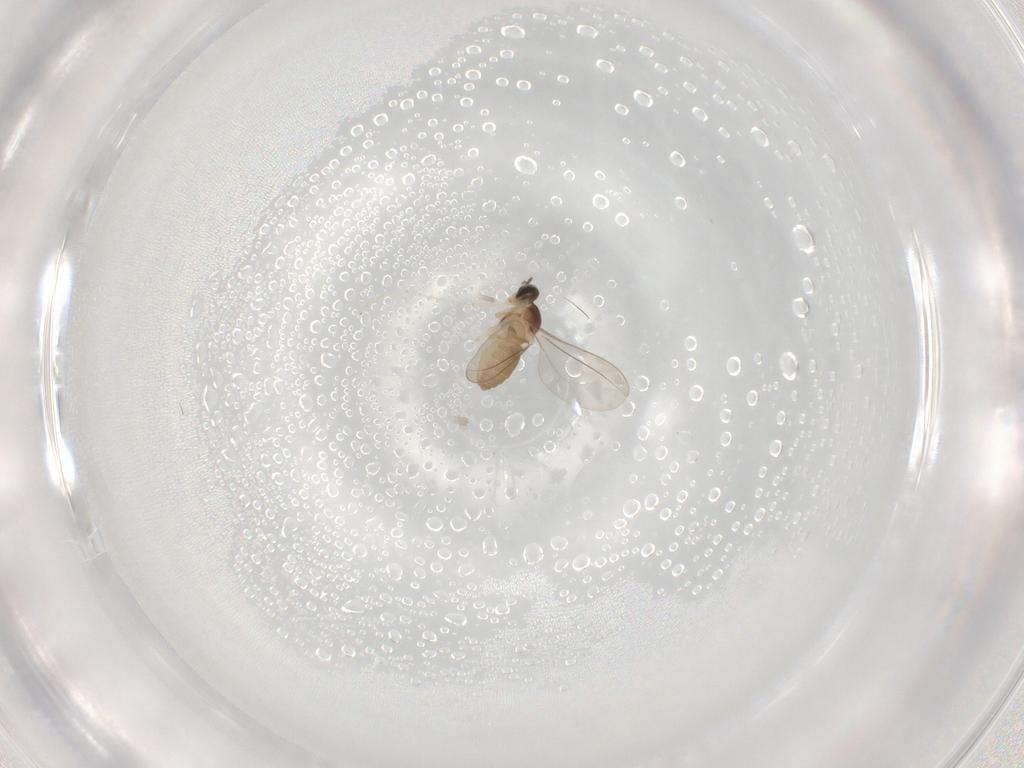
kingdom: Animalia
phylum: Arthropoda
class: Insecta
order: Diptera
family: Cecidomyiidae
